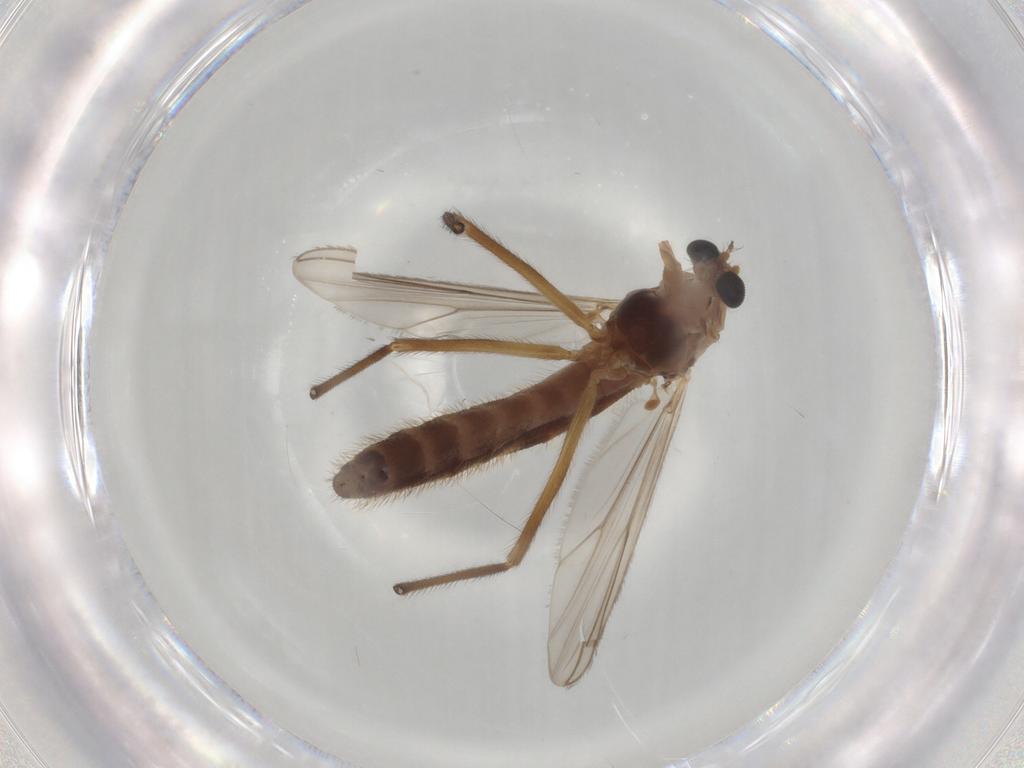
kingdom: Animalia
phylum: Arthropoda
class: Insecta
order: Diptera
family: Chironomidae
